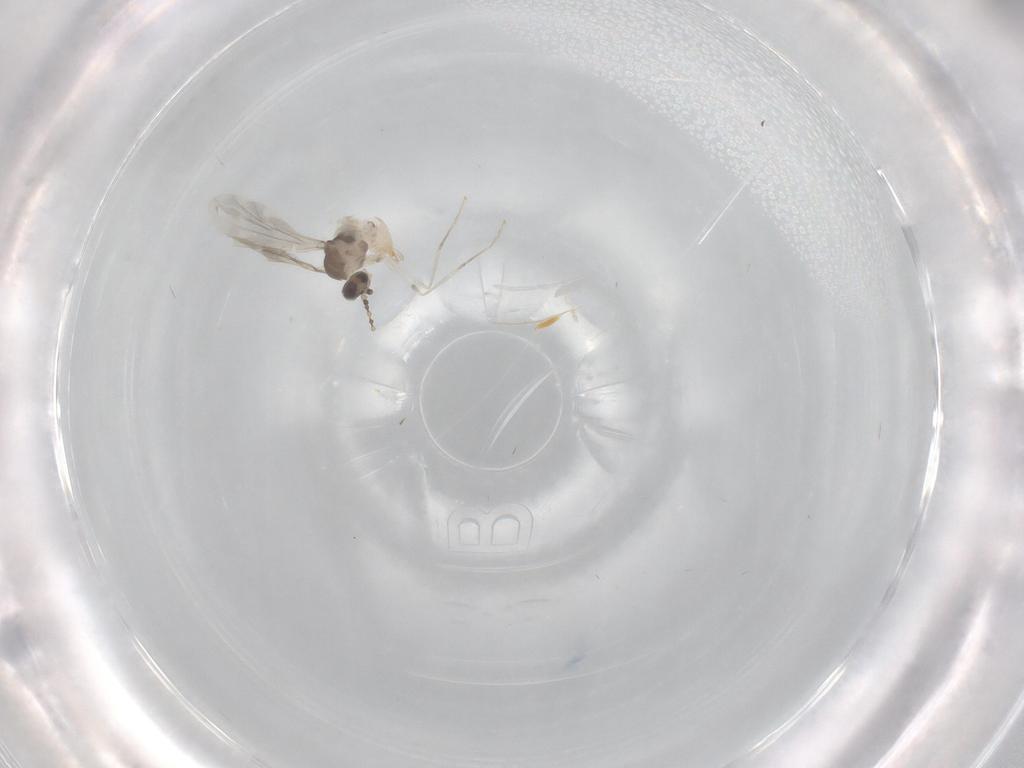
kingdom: Animalia
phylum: Arthropoda
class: Insecta
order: Diptera
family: Cecidomyiidae
